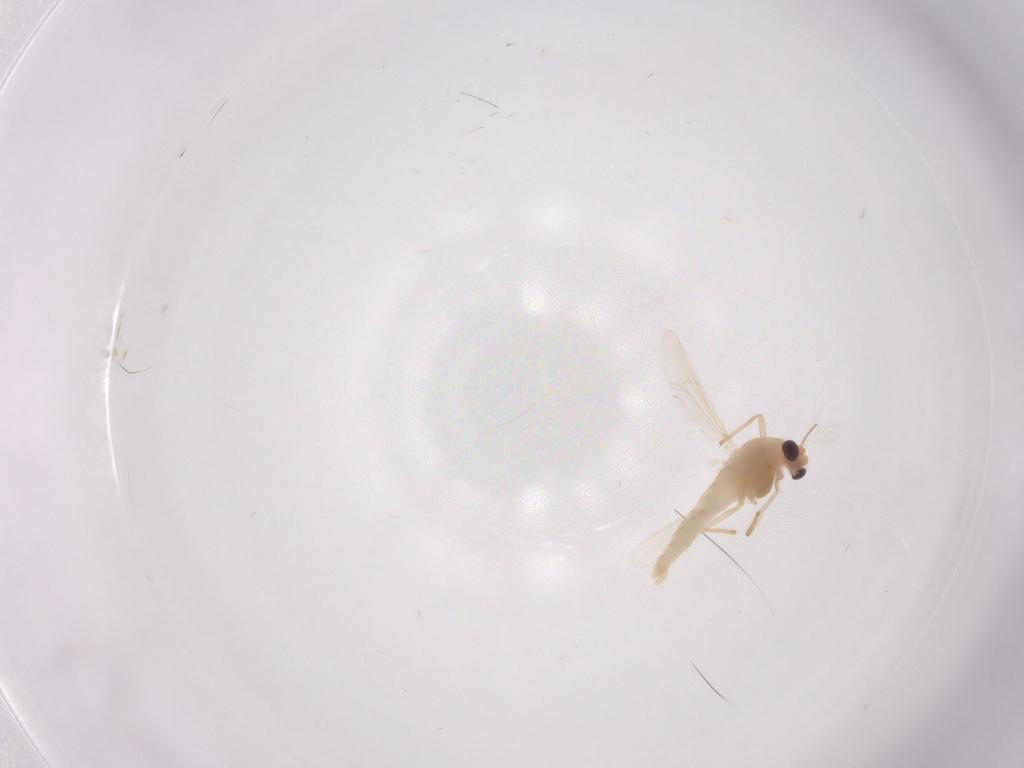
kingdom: Animalia
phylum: Arthropoda
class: Insecta
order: Diptera
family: Chironomidae
